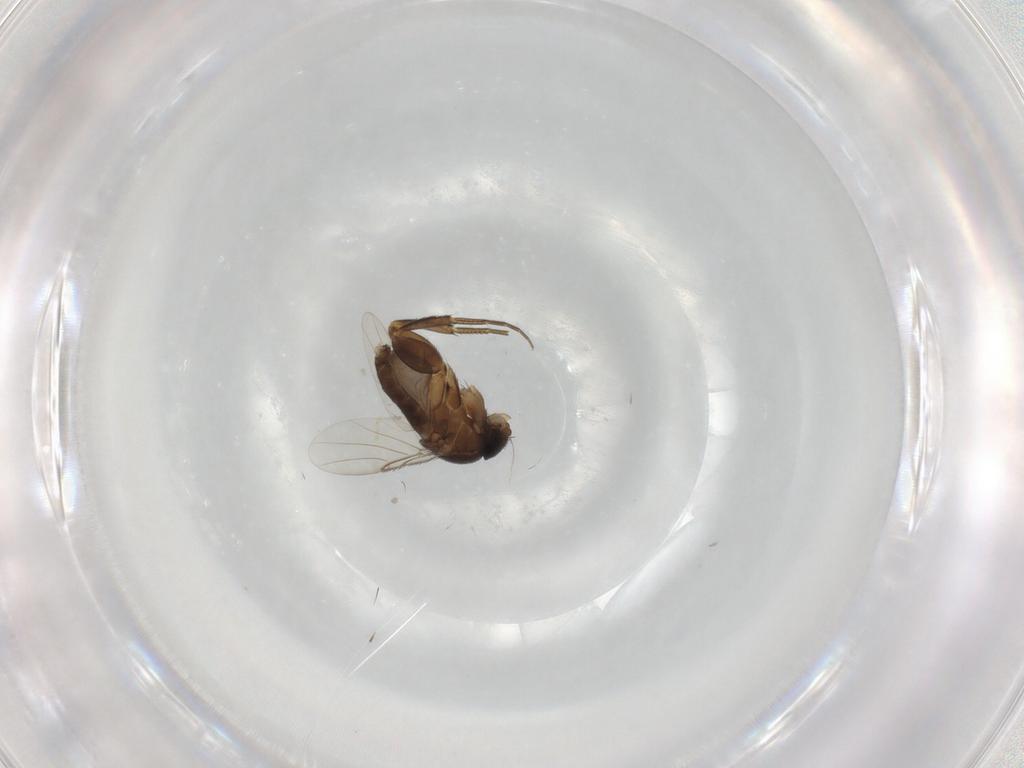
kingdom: Animalia
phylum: Arthropoda
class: Insecta
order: Diptera
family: Phoridae
